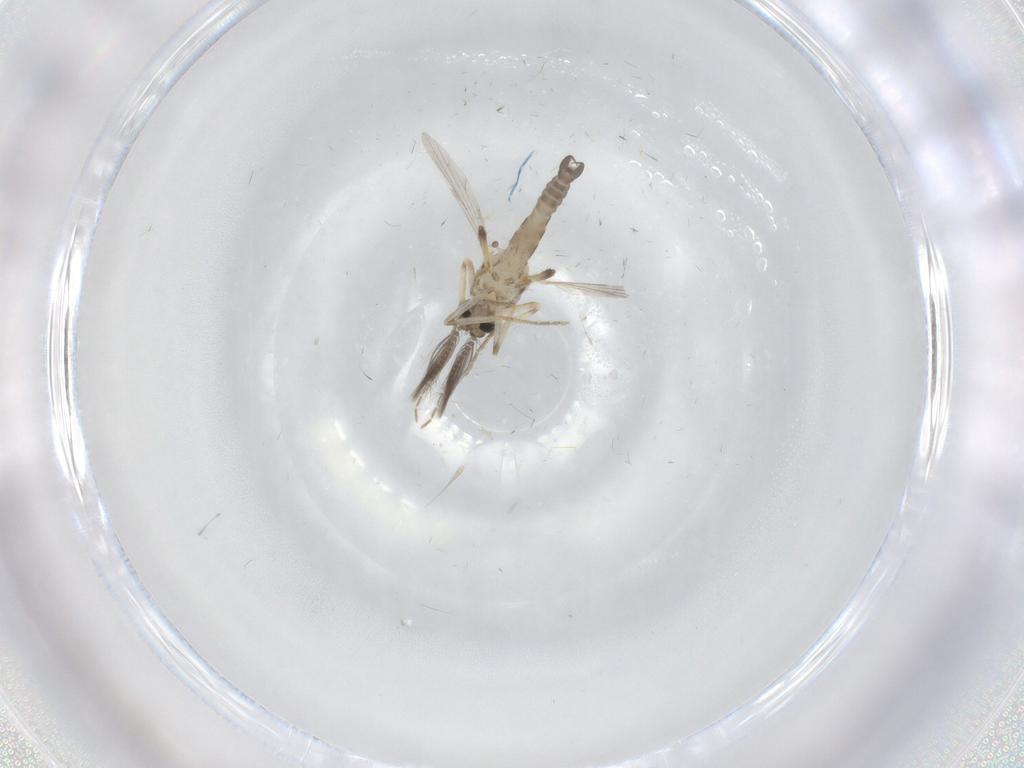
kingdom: Animalia
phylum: Arthropoda
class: Insecta
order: Diptera
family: Ceratopogonidae
